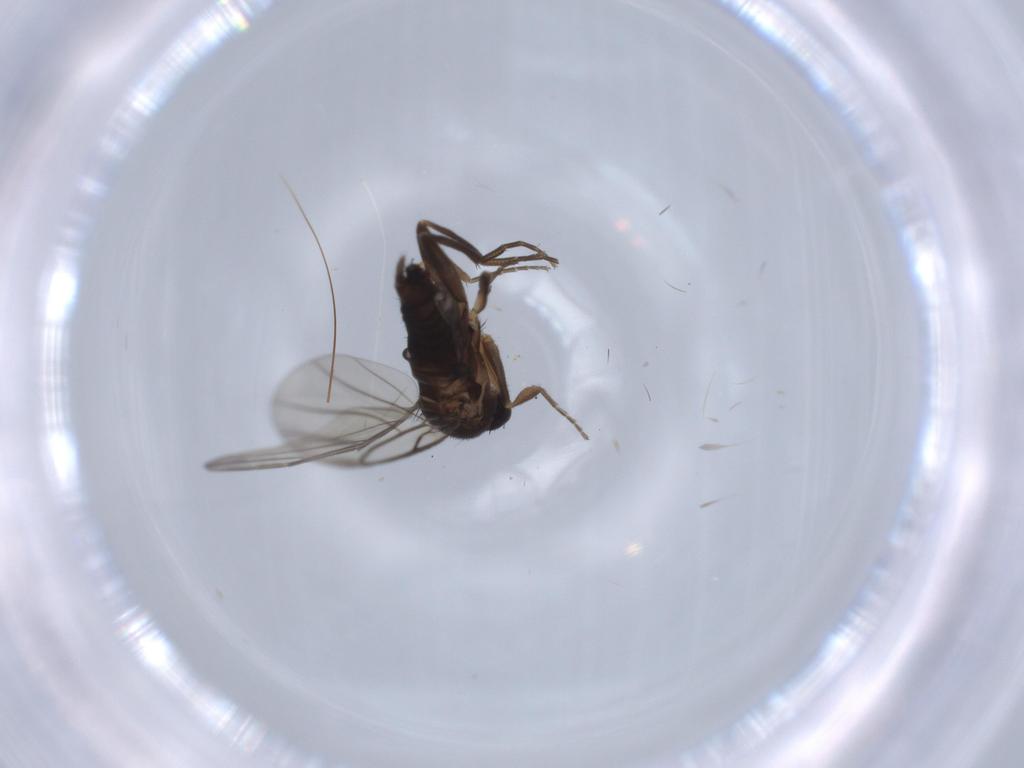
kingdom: Animalia
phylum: Arthropoda
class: Insecta
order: Diptera
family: Cecidomyiidae
